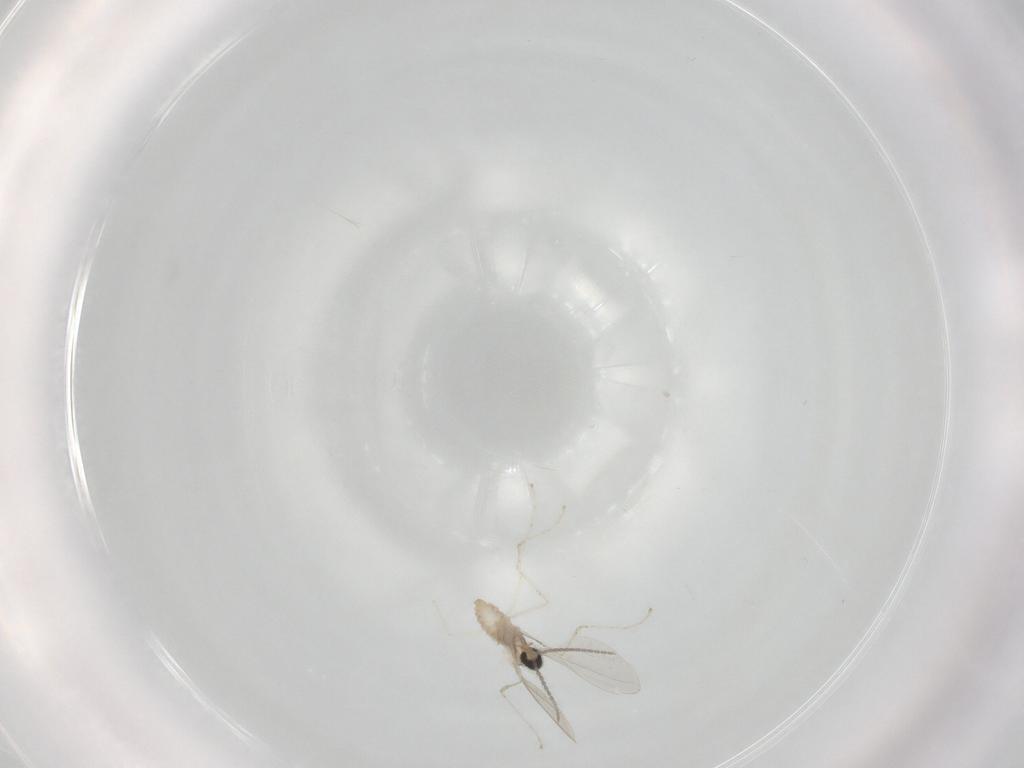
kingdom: Animalia
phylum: Arthropoda
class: Insecta
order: Diptera
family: Cecidomyiidae
